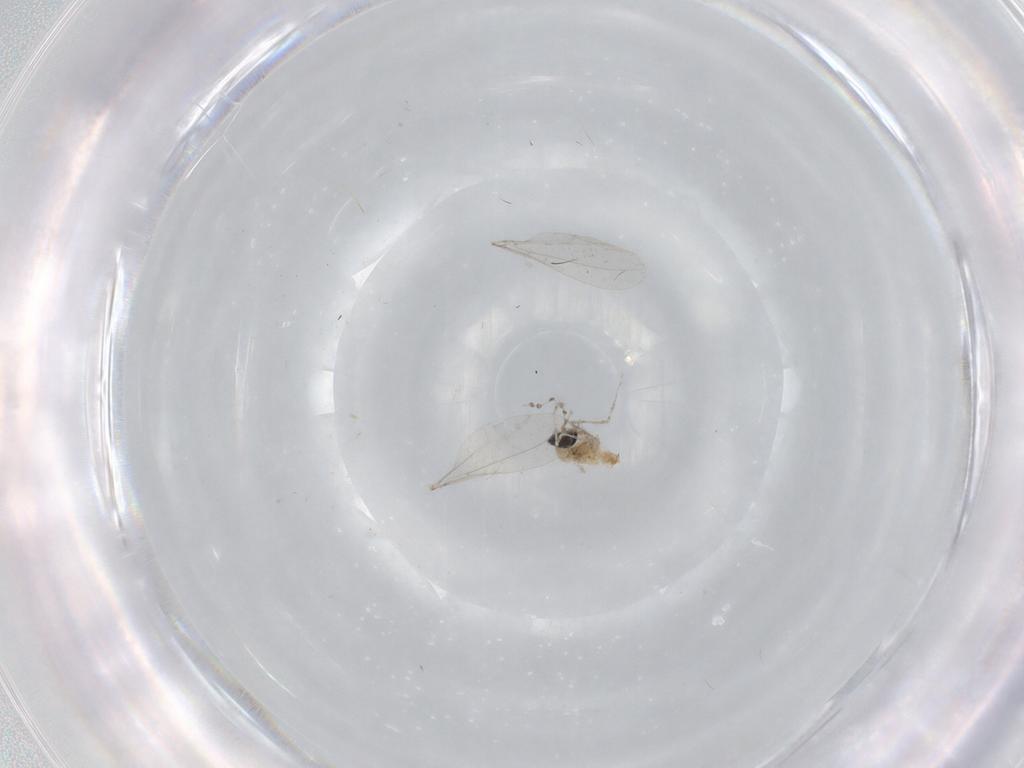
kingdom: Animalia
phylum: Arthropoda
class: Insecta
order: Diptera
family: Cecidomyiidae
